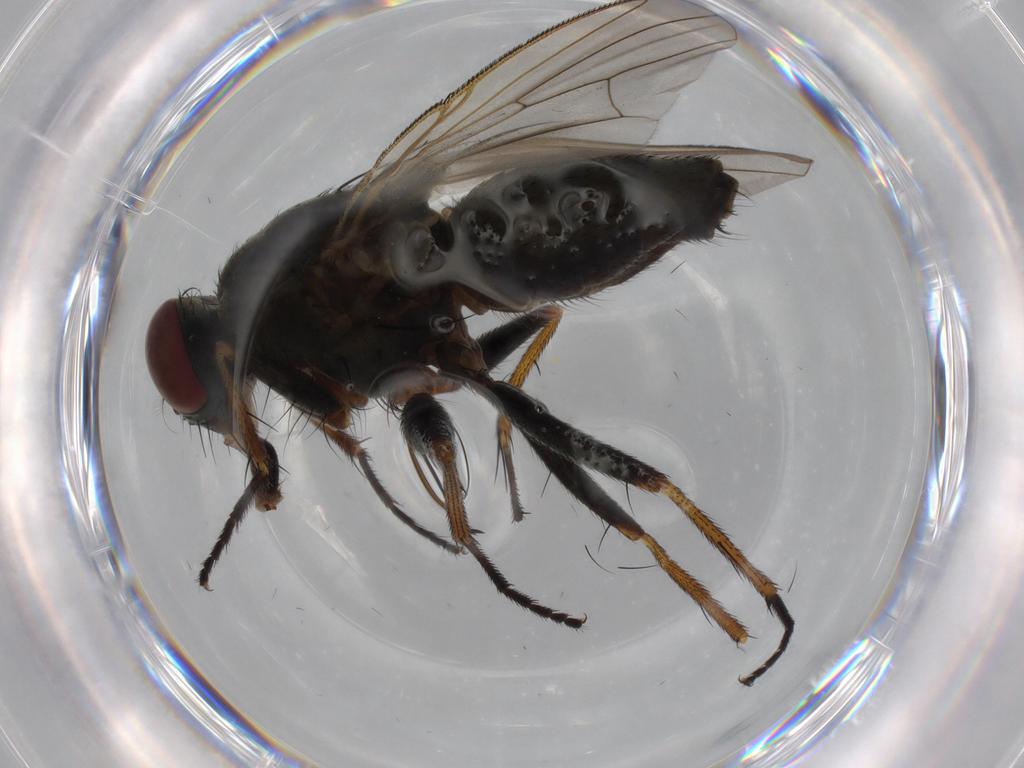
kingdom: Animalia
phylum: Arthropoda
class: Insecta
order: Diptera
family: Muscidae
